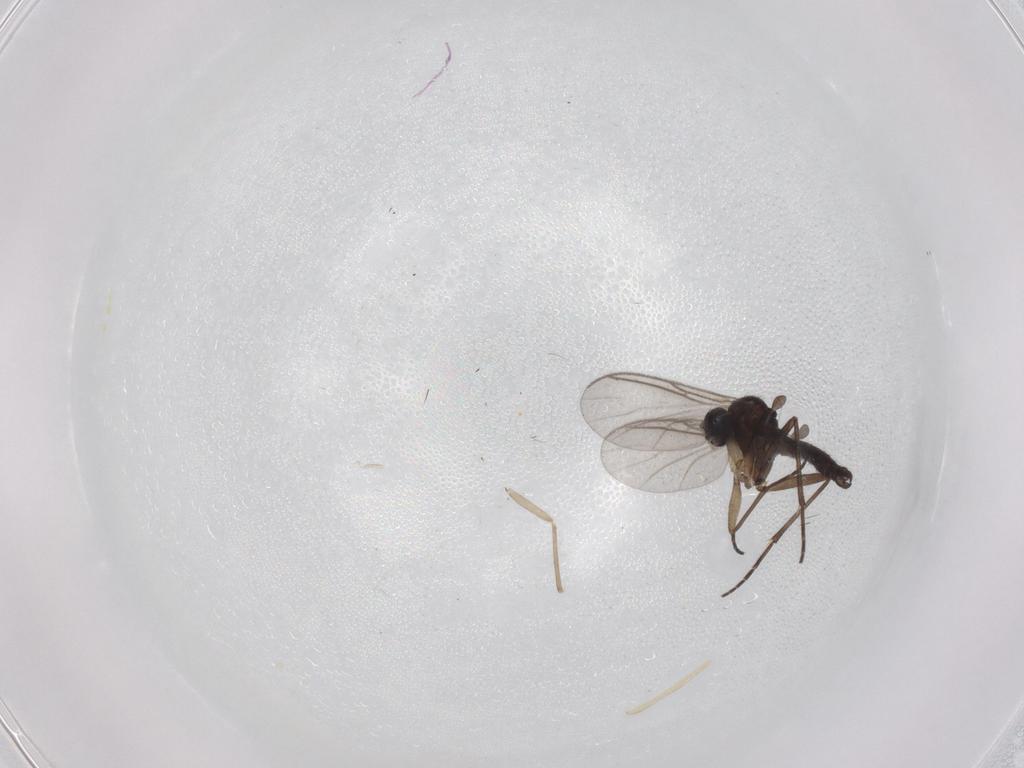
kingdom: Animalia
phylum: Arthropoda
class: Insecta
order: Diptera
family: Sciaridae
